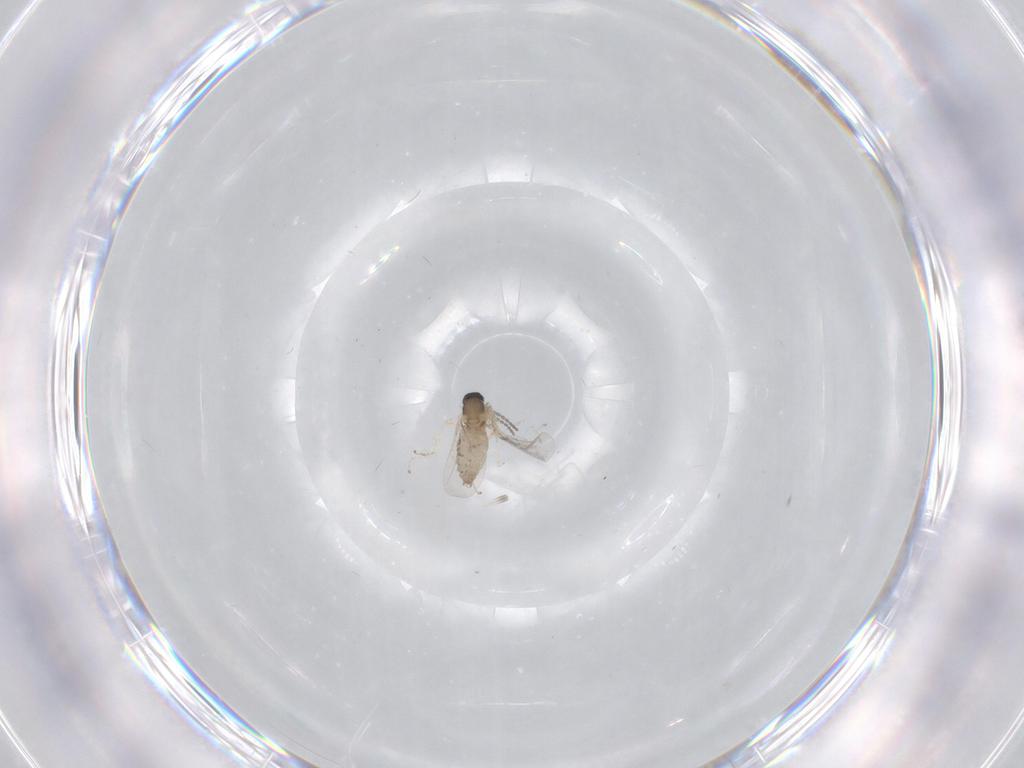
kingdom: Animalia
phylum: Arthropoda
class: Insecta
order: Diptera
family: Cecidomyiidae
